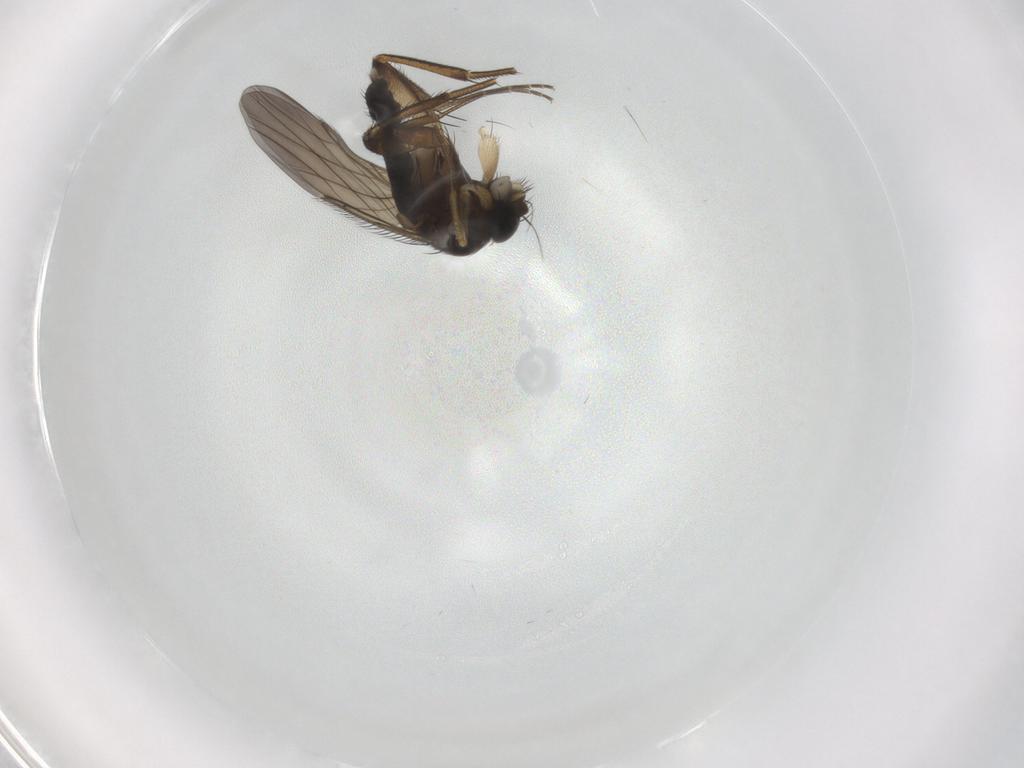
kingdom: Animalia
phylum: Arthropoda
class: Insecta
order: Diptera
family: Phoridae
